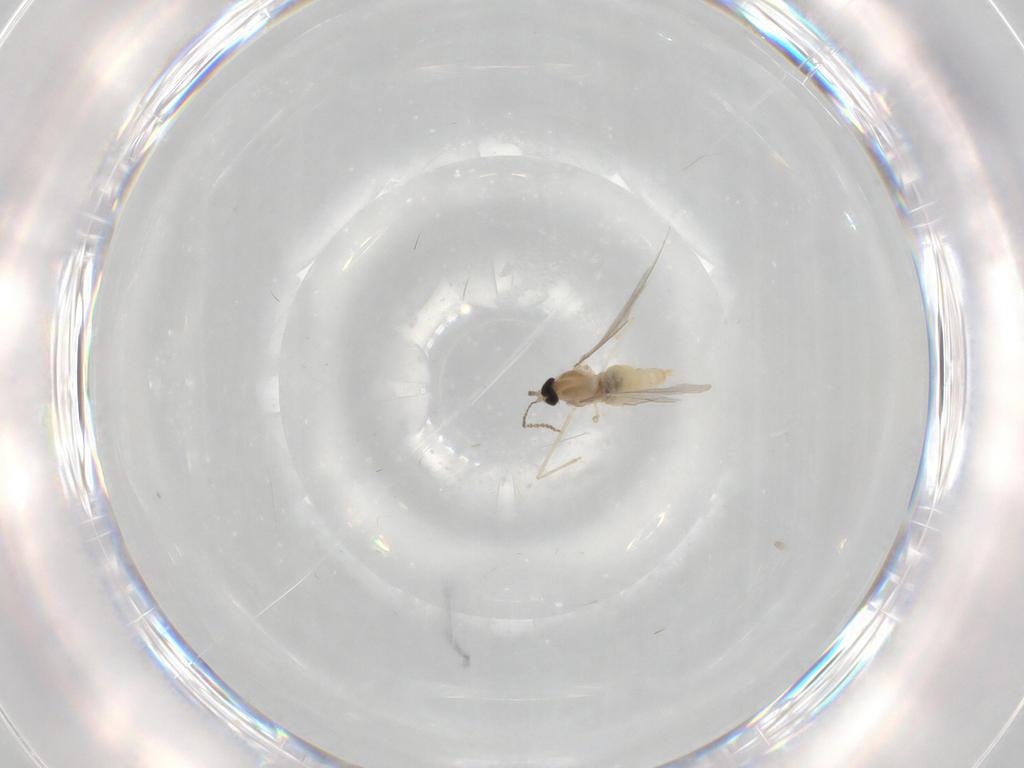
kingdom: Animalia
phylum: Arthropoda
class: Insecta
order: Diptera
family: Cecidomyiidae
